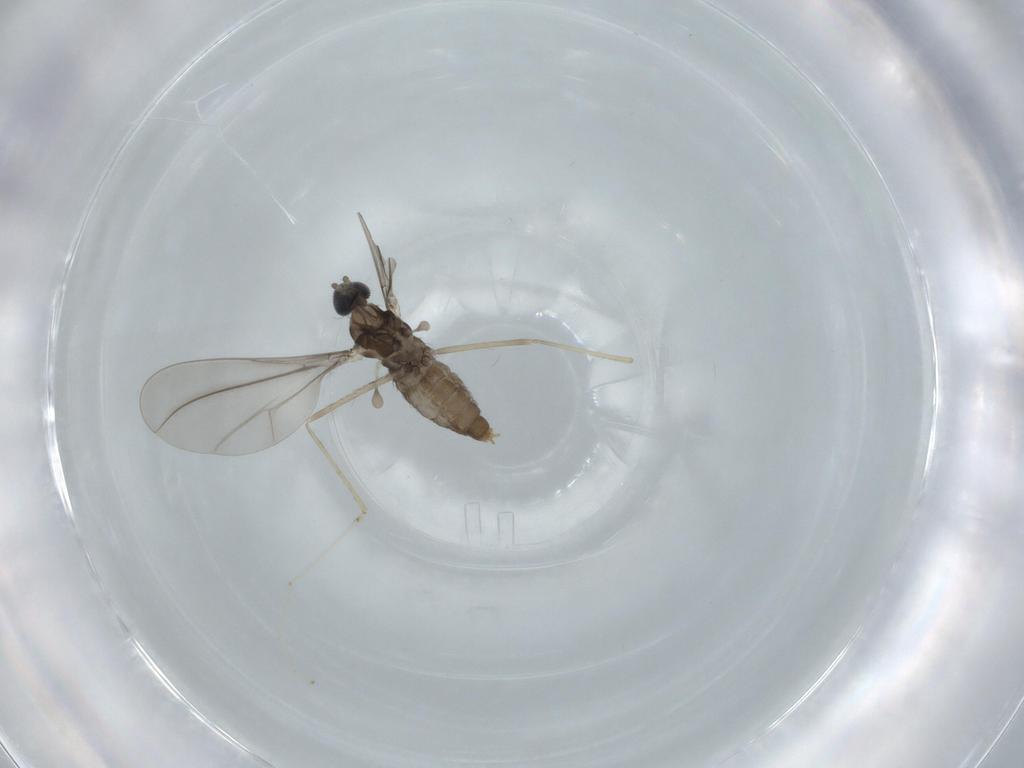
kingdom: Animalia
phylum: Arthropoda
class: Insecta
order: Diptera
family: Cecidomyiidae
